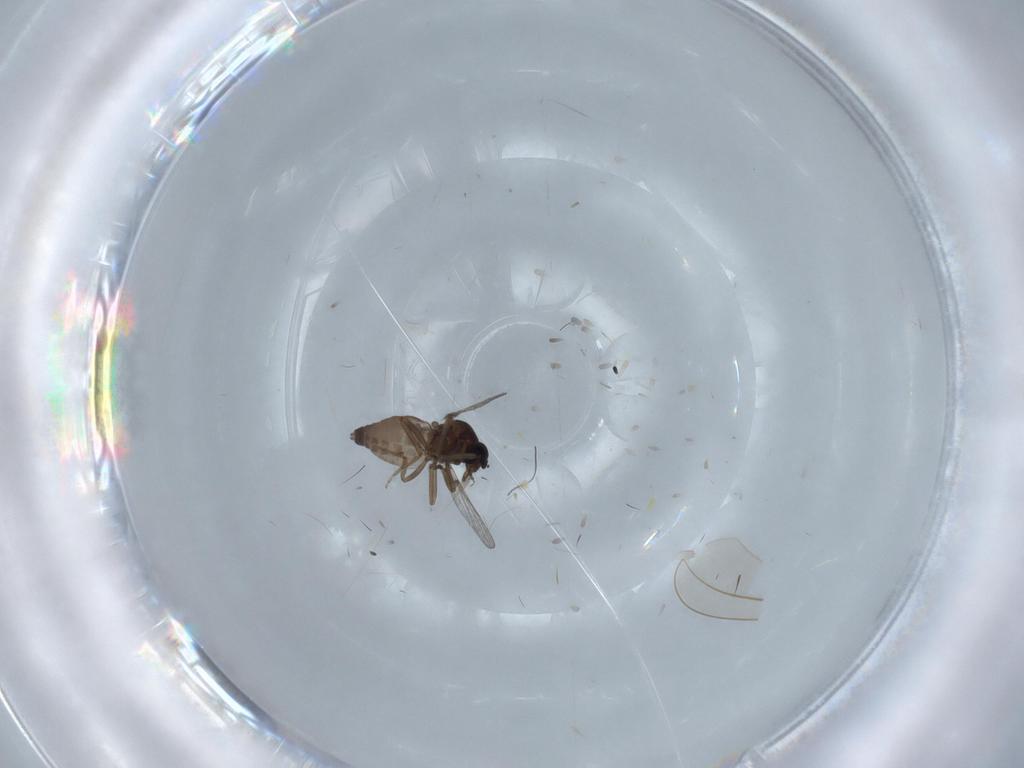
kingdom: Animalia
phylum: Arthropoda
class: Insecta
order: Diptera
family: Ceratopogonidae
